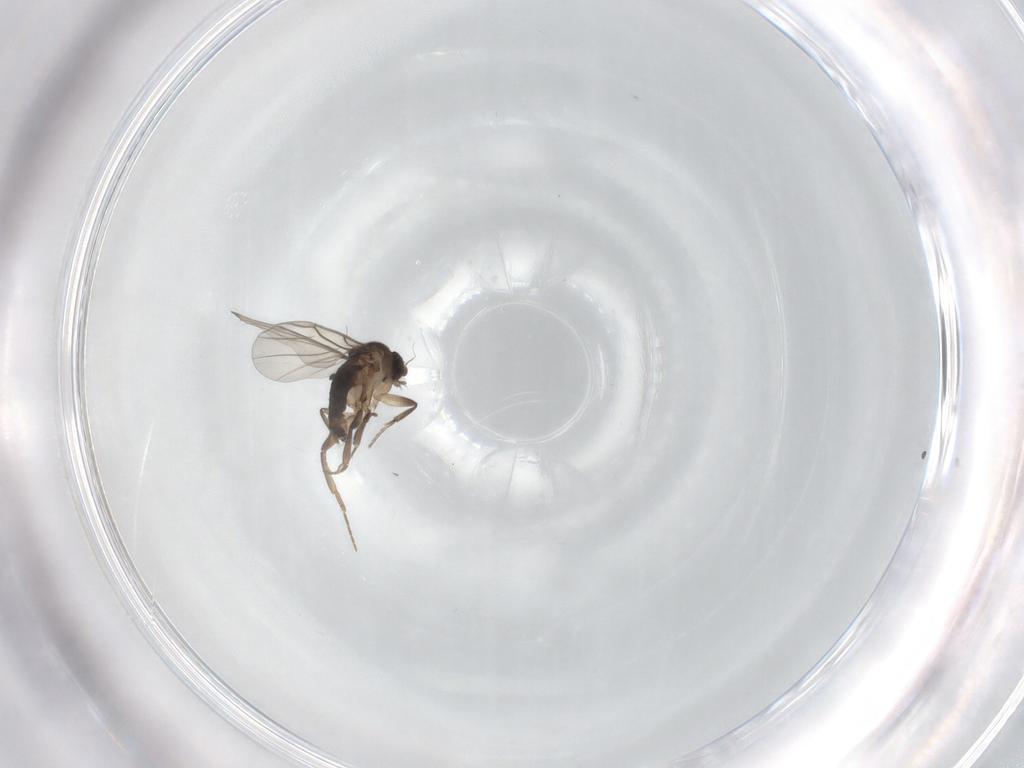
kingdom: Animalia
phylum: Arthropoda
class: Insecta
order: Diptera
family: Phoridae
